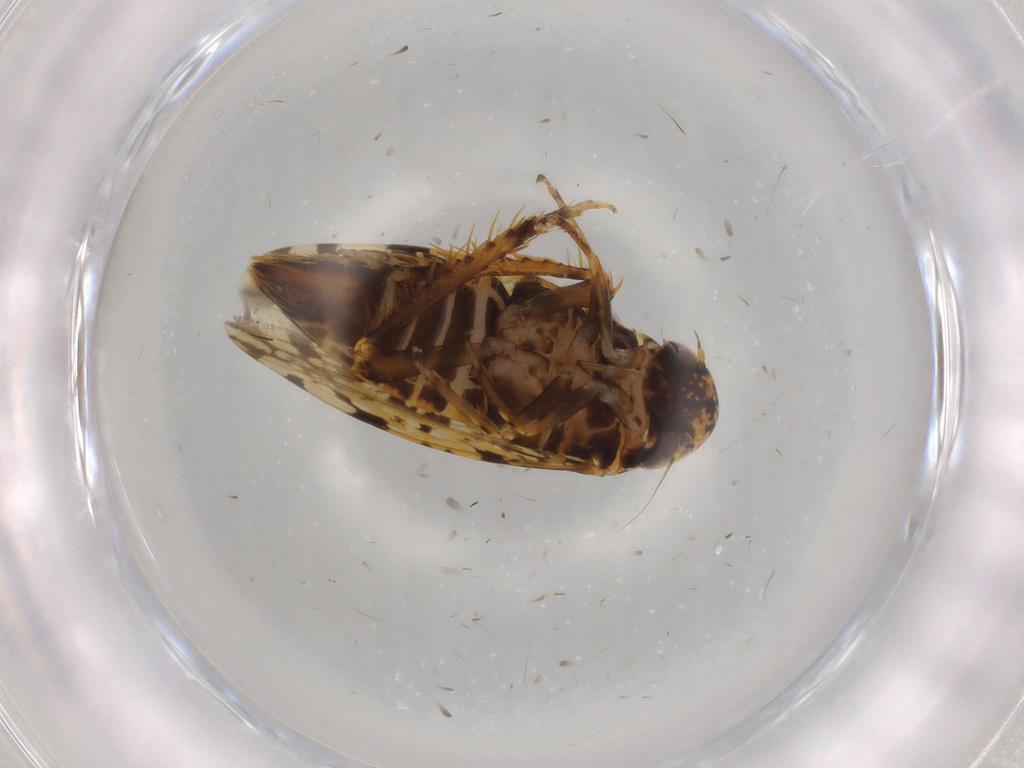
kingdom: Animalia
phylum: Arthropoda
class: Insecta
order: Hemiptera
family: Cicadellidae
